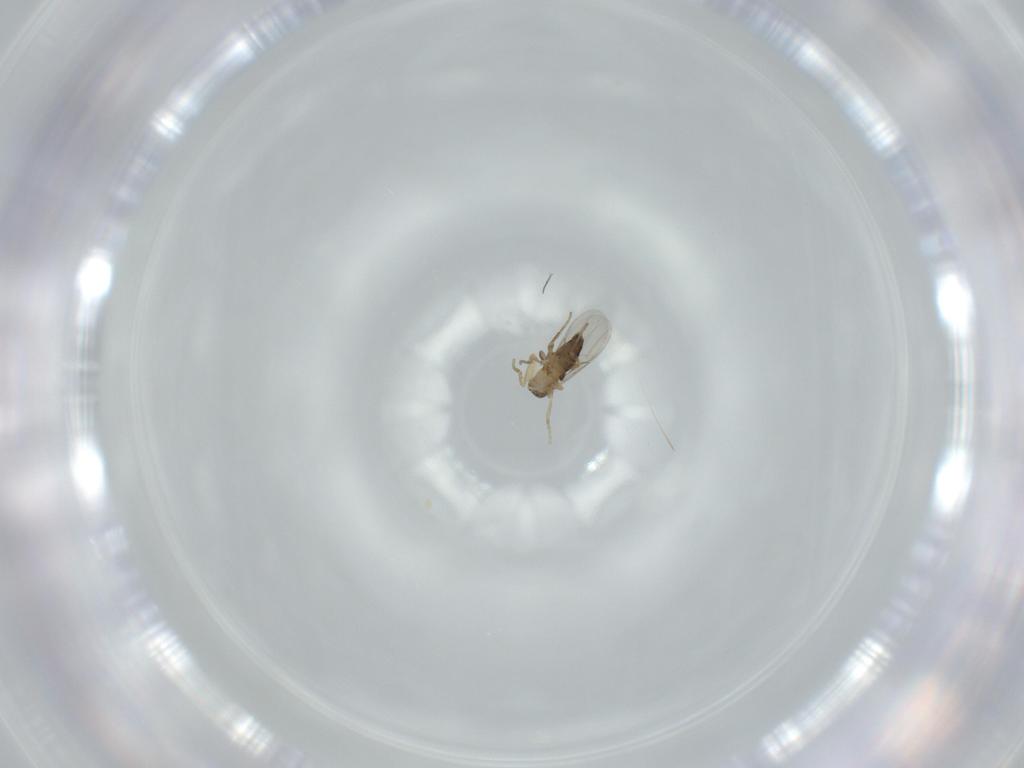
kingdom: Animalia
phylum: Arthropoda
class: Insecta
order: Diptera
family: Phoridae
